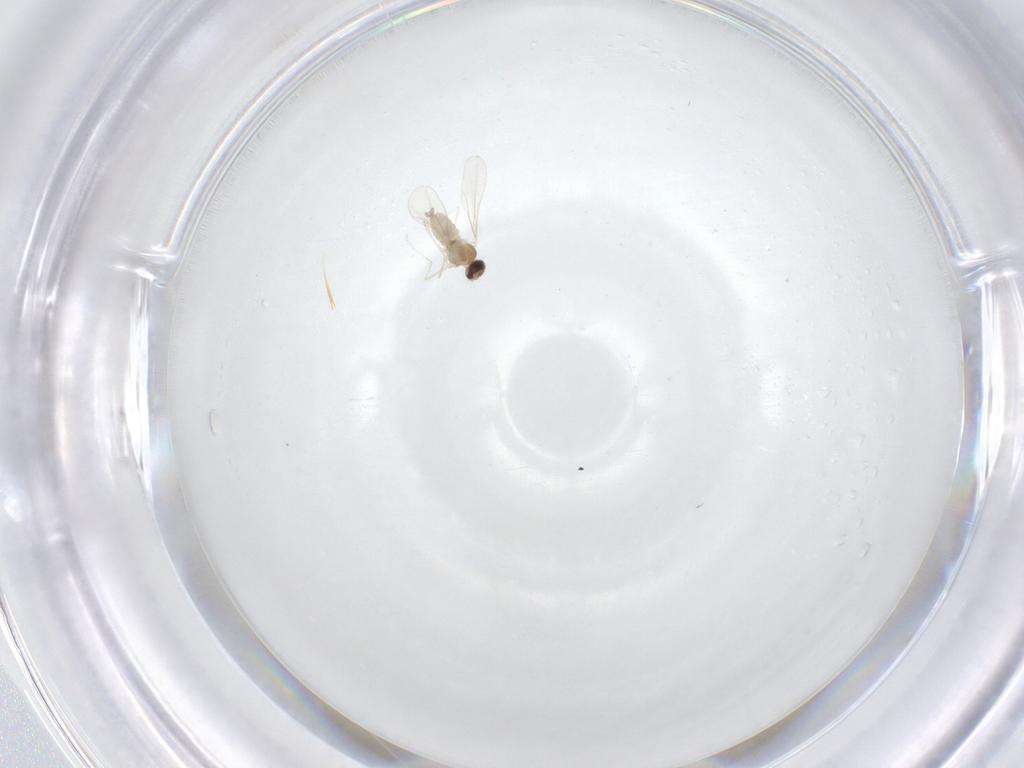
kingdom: Animalia
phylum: Arthropoda
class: Insecta
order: Diptera
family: Cecidomyiidae
